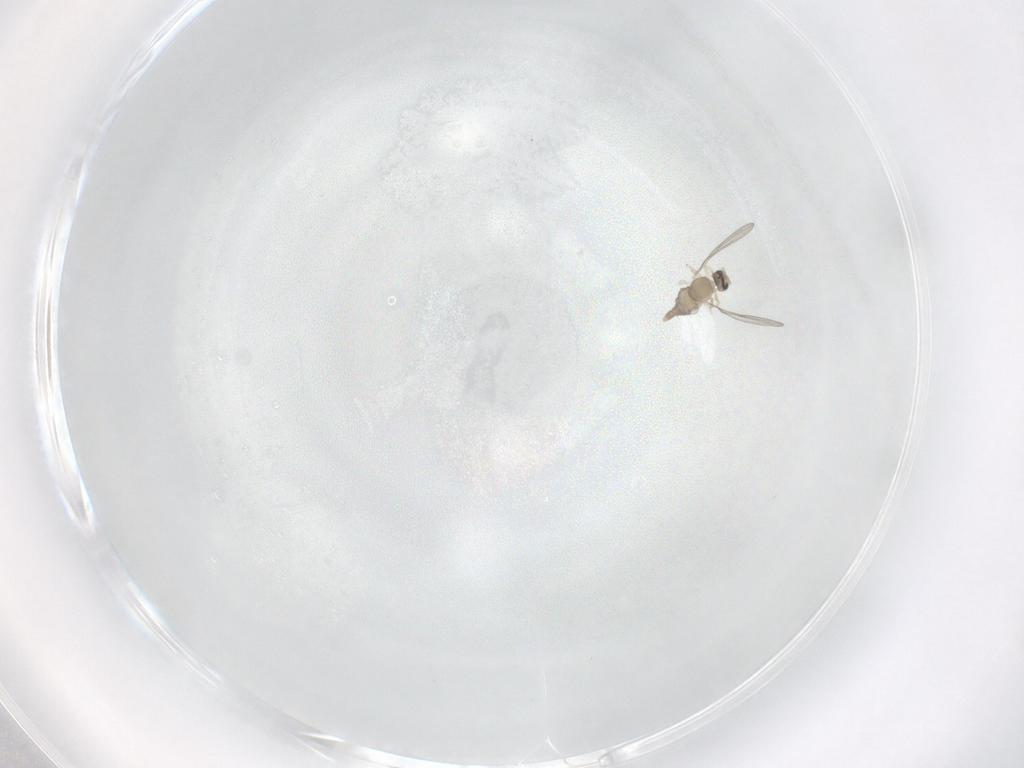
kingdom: Animalia
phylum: Arthropoda
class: Insecta
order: Diptera
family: Cecidomyiidae
